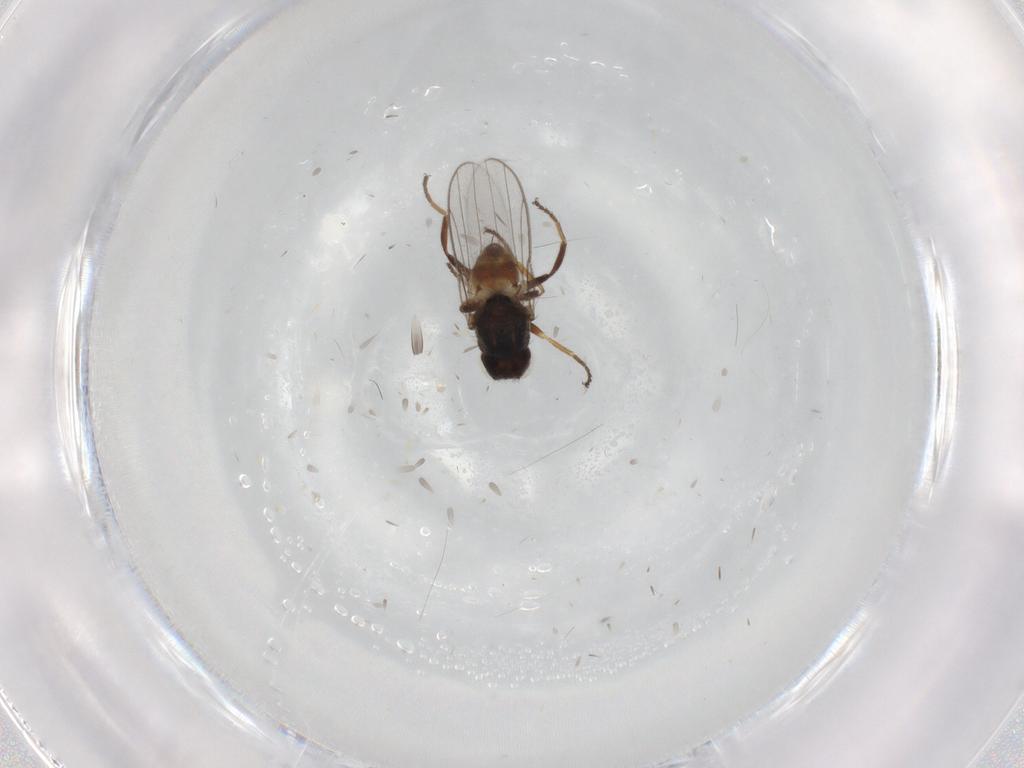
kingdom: Animalia
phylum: Arthropoda
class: Insecta
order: Diptera
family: Chloropidae
